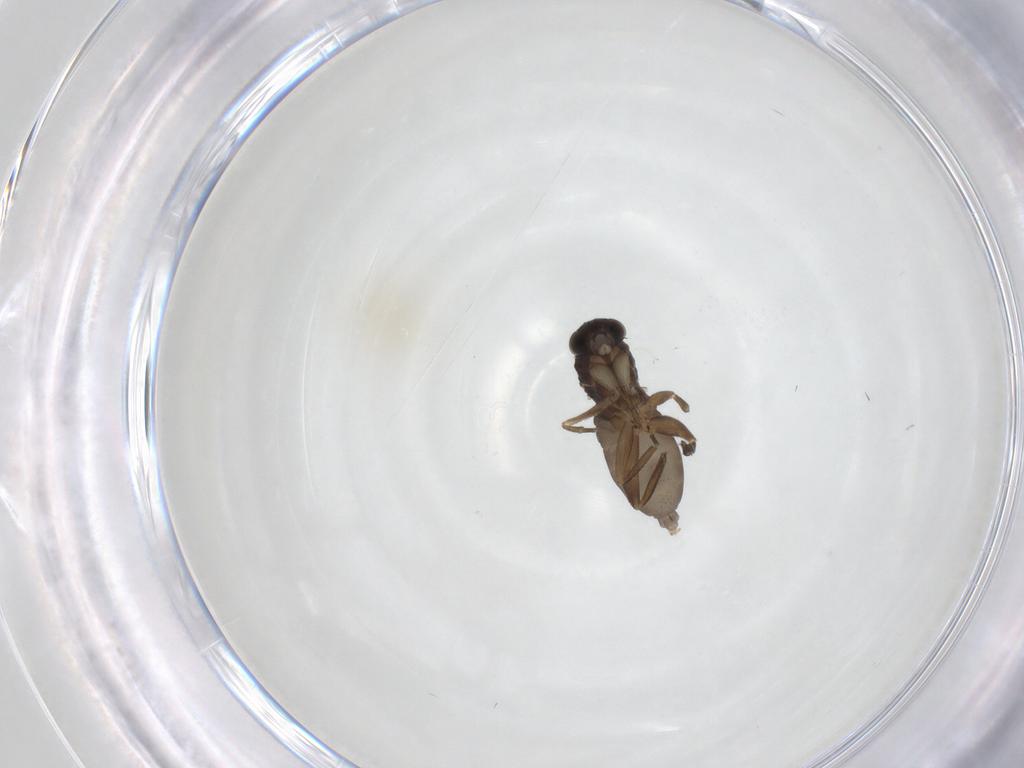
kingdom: Animalia
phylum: Arthropoda
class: Insecta
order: Diptera
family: Phoridae
